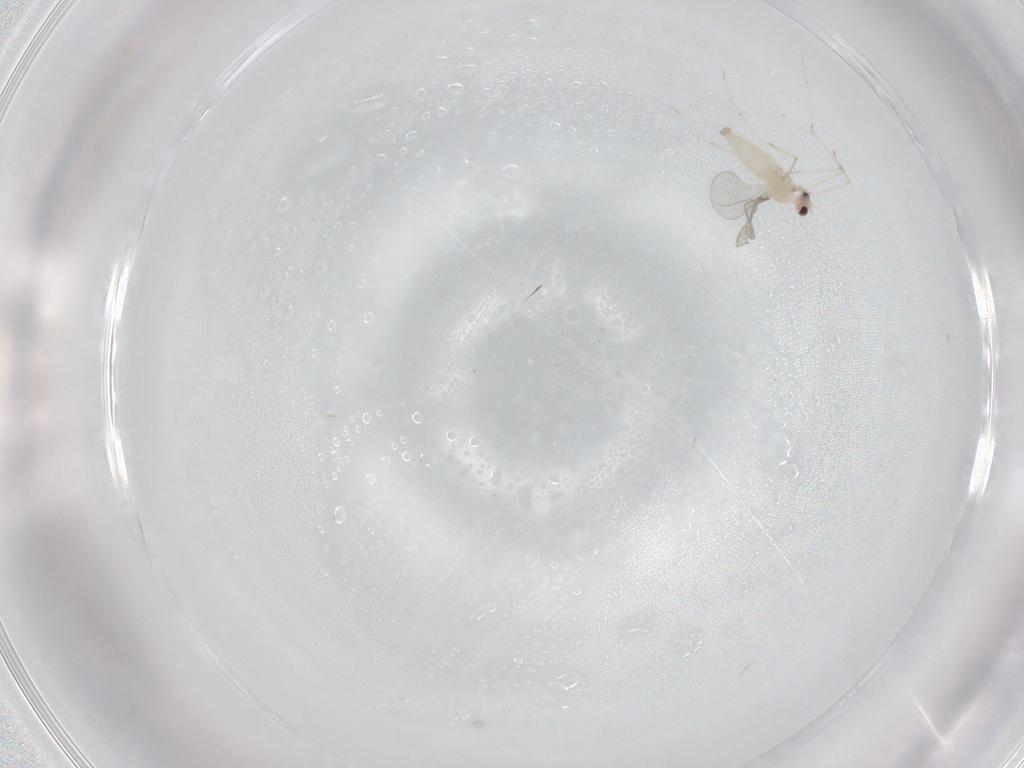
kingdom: Animalia
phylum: Arthropoda
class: Insecta
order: Diptera
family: Cecidomyiidae
